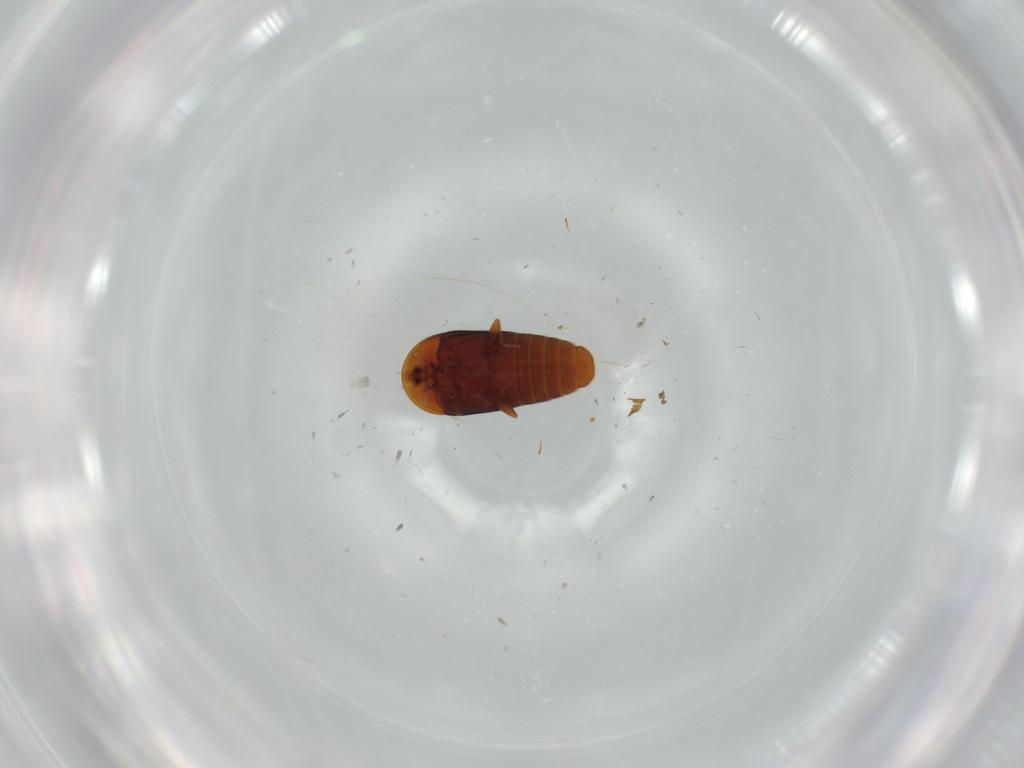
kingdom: Animalia
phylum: Arthropoda
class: Insecta
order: Coleoptera
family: Corylophidae
